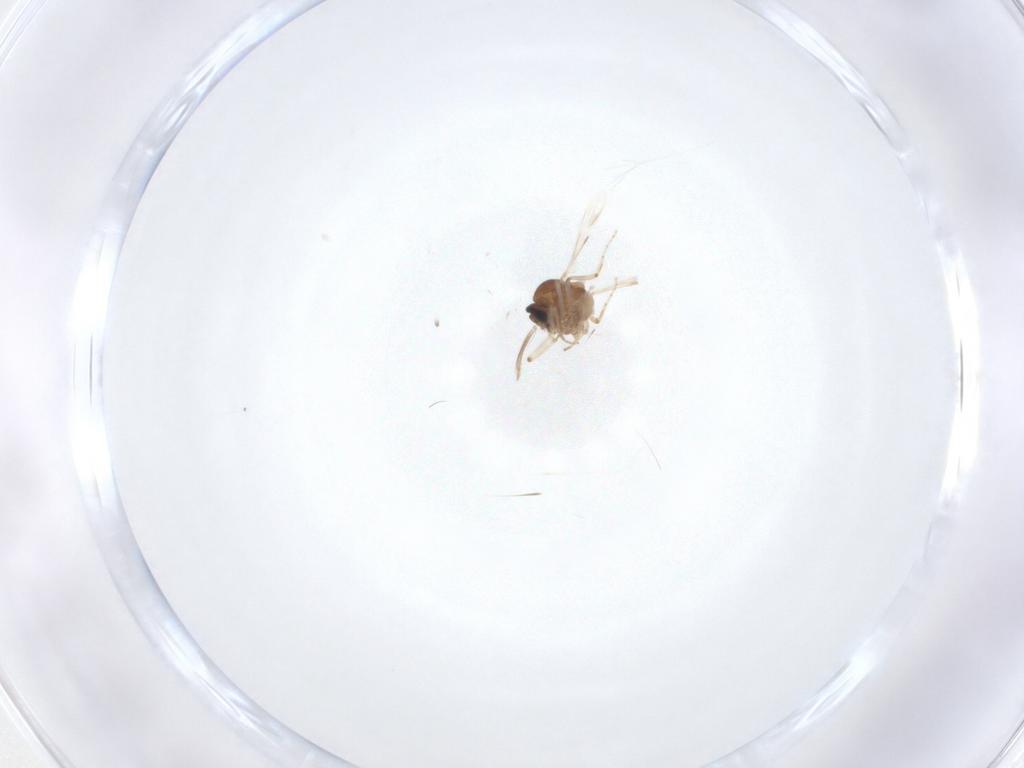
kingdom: Animalia
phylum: Arthropoda
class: Insecta
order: Diptera
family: Ceratopogonidae
